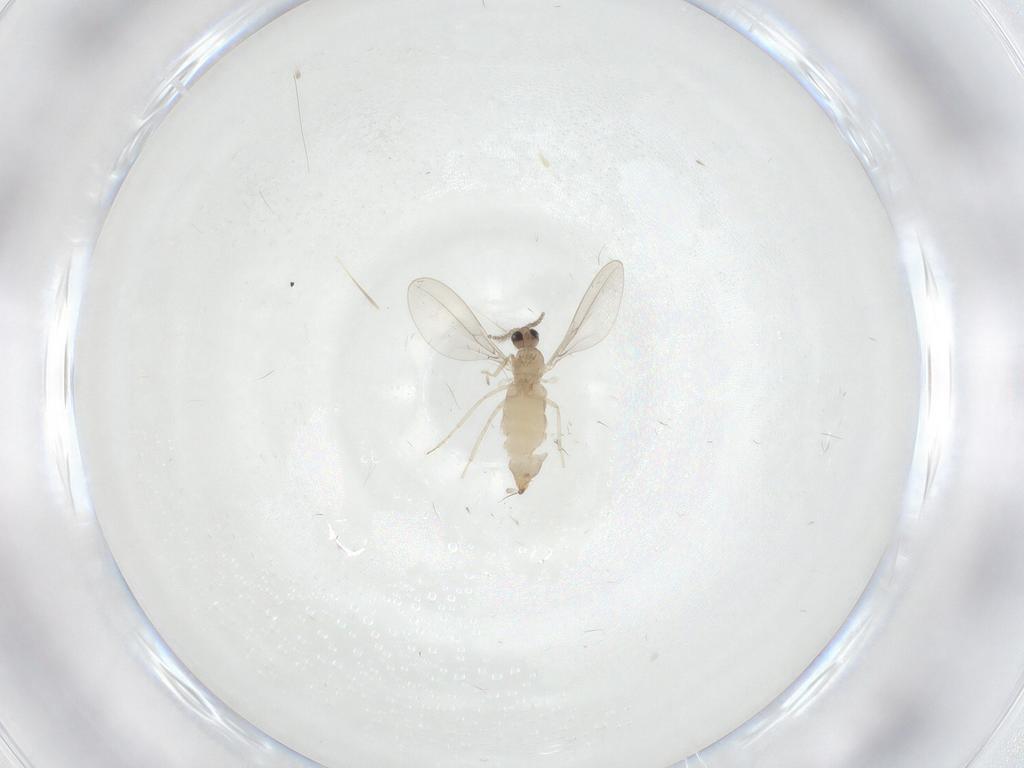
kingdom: Animalia
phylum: Arthropoda
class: Insecta
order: Diptera
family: Cecidomyiidae
